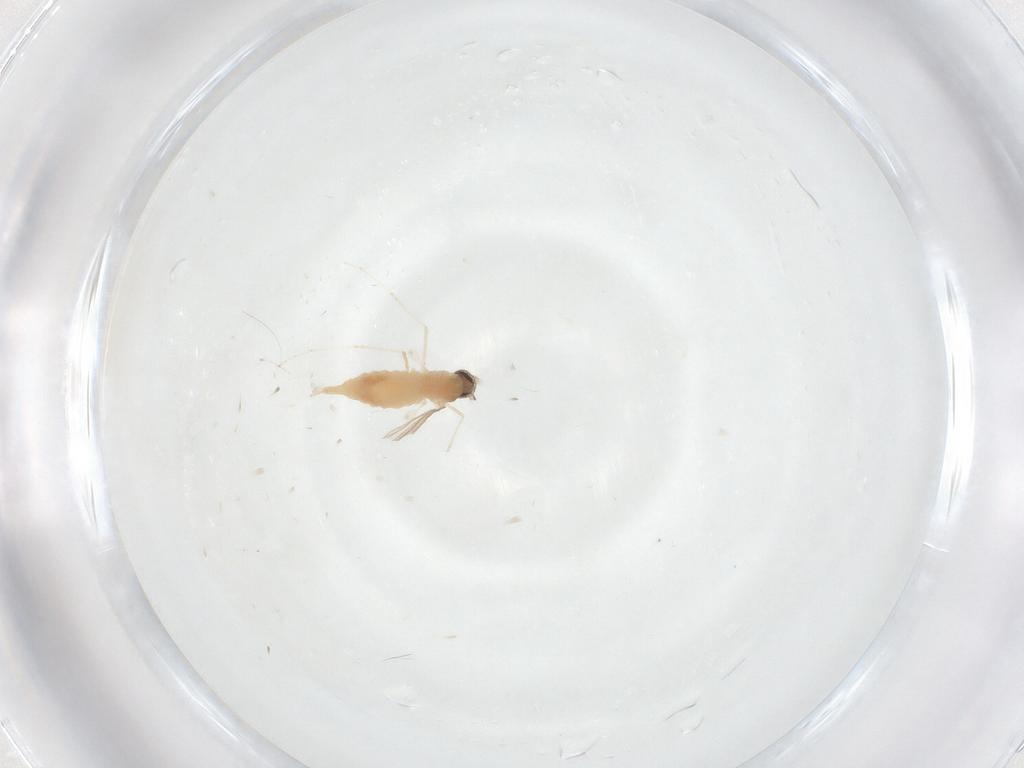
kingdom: Animalia
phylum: Arthropoda
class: Insecta
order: Diptera
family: Cecidomyiidae
